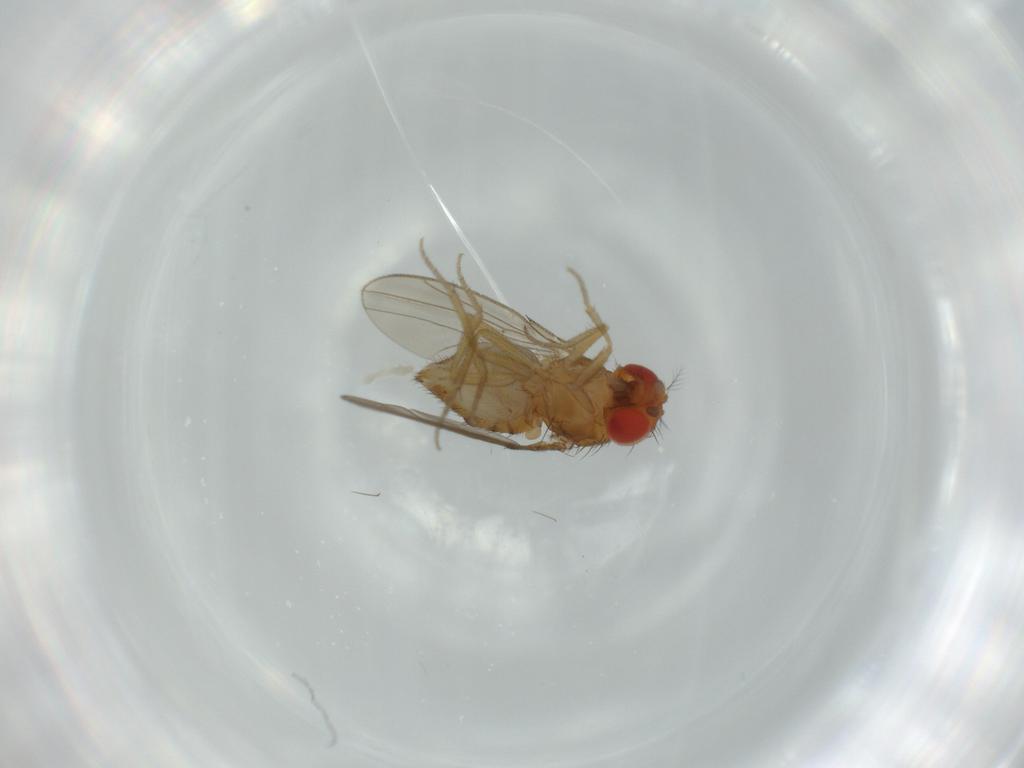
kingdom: Animalia
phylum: Arthropoda
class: Insecta
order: Diptera
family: Drosophilidae
